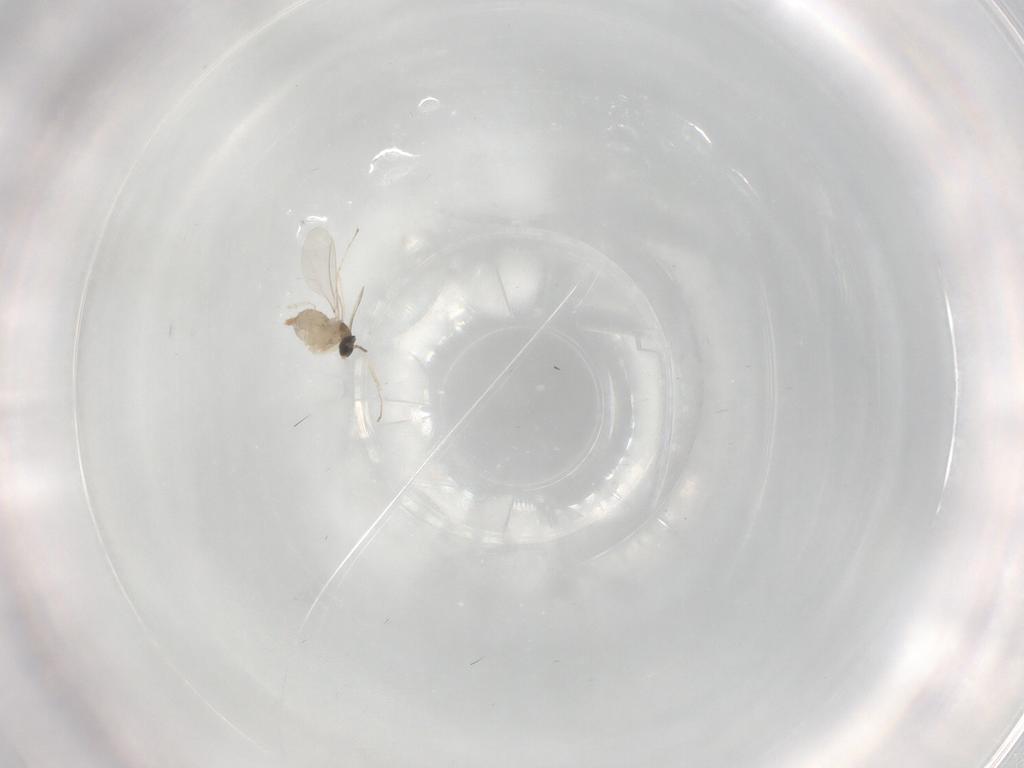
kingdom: Animalia
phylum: Arthropoda
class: Insecta
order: Diptera
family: Cecidomyiidae
